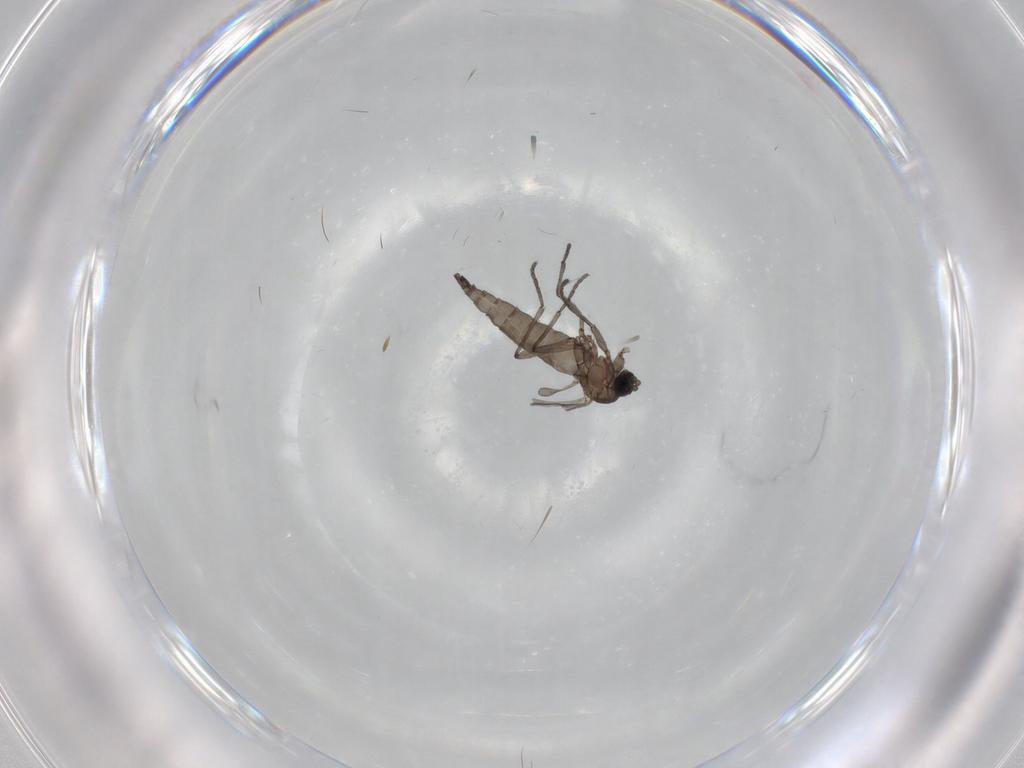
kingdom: Animalia
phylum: Arthropoda
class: Insecta
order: Diptera
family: Sciaridae
